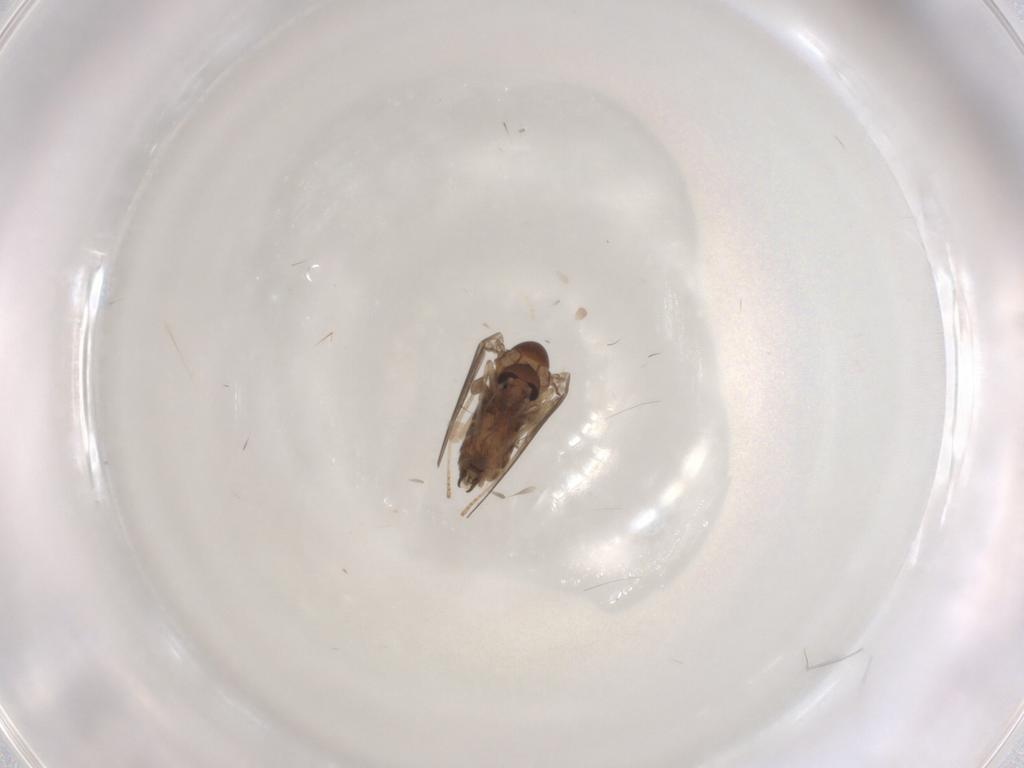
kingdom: Animalia
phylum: Arthropoda
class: Insecta
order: Diptera
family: Psychodidae
